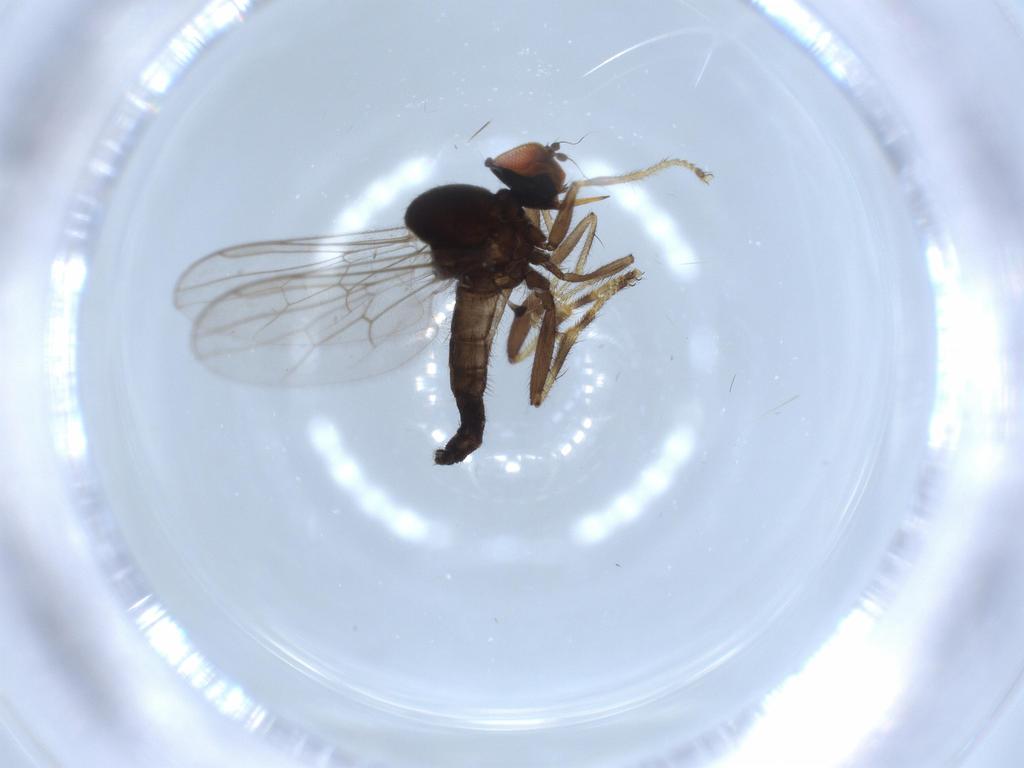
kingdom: Animalia
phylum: Arthropoda
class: Insecta
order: Diptera
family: Hybotidae
